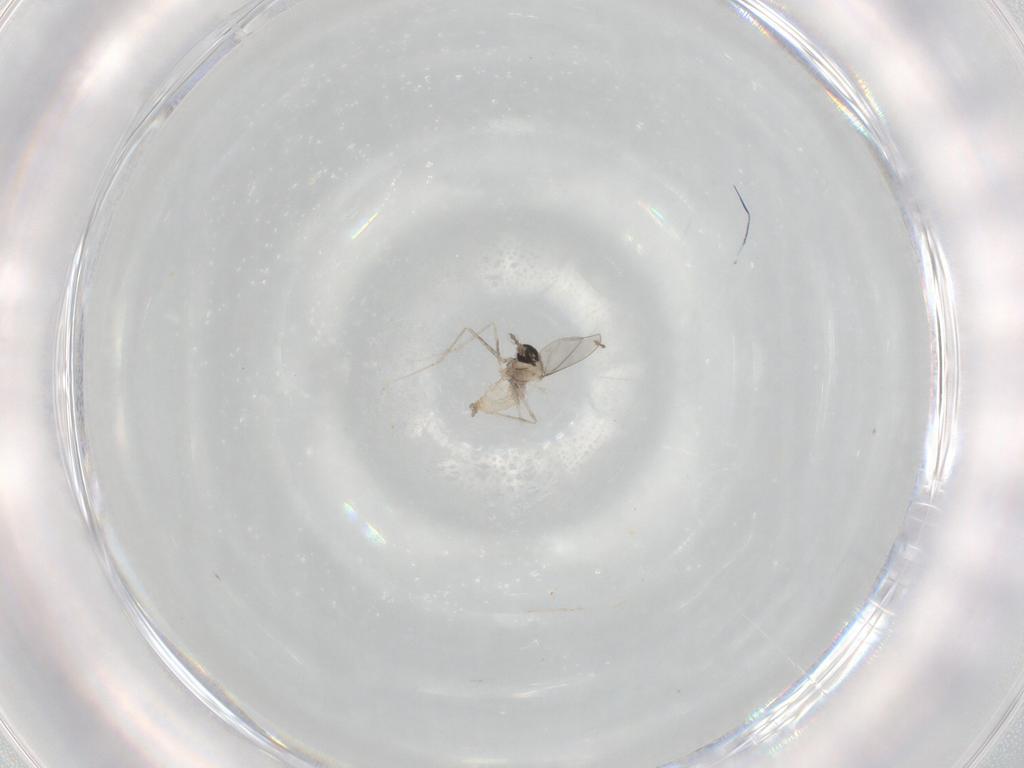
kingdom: Animalia
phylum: Arthropoda
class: Insecta
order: Diptera
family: Cecidomyiidae
